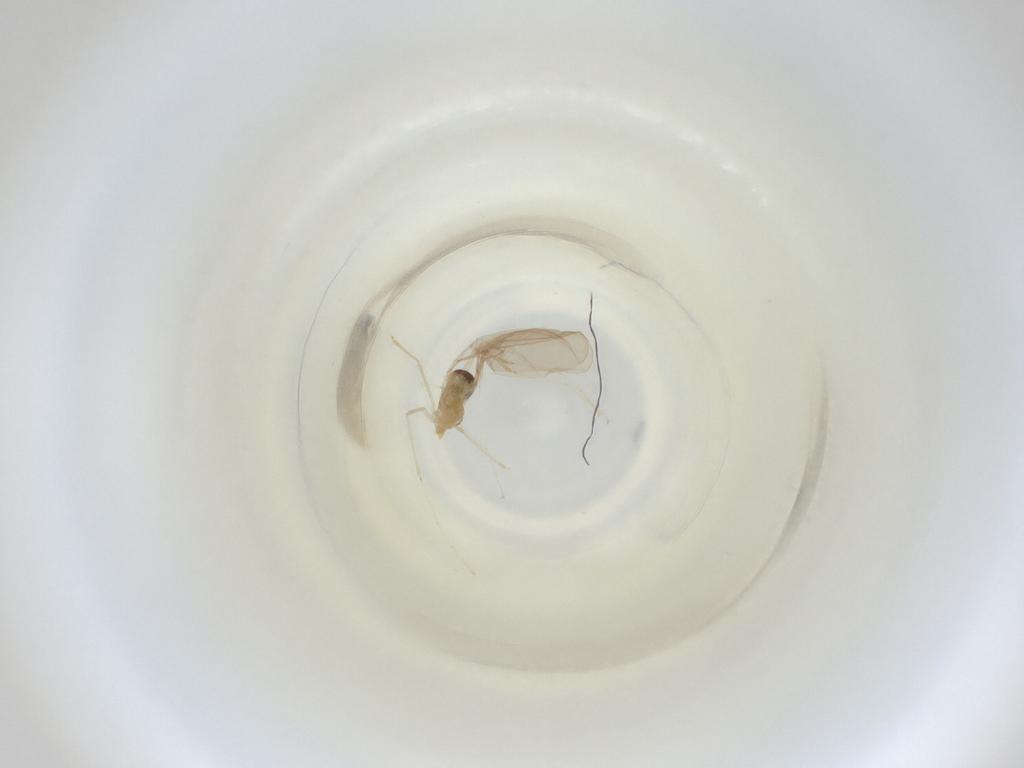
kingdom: Animalia
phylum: Arthropoda
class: Insecta
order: Diptera
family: Cecidomyiidae
